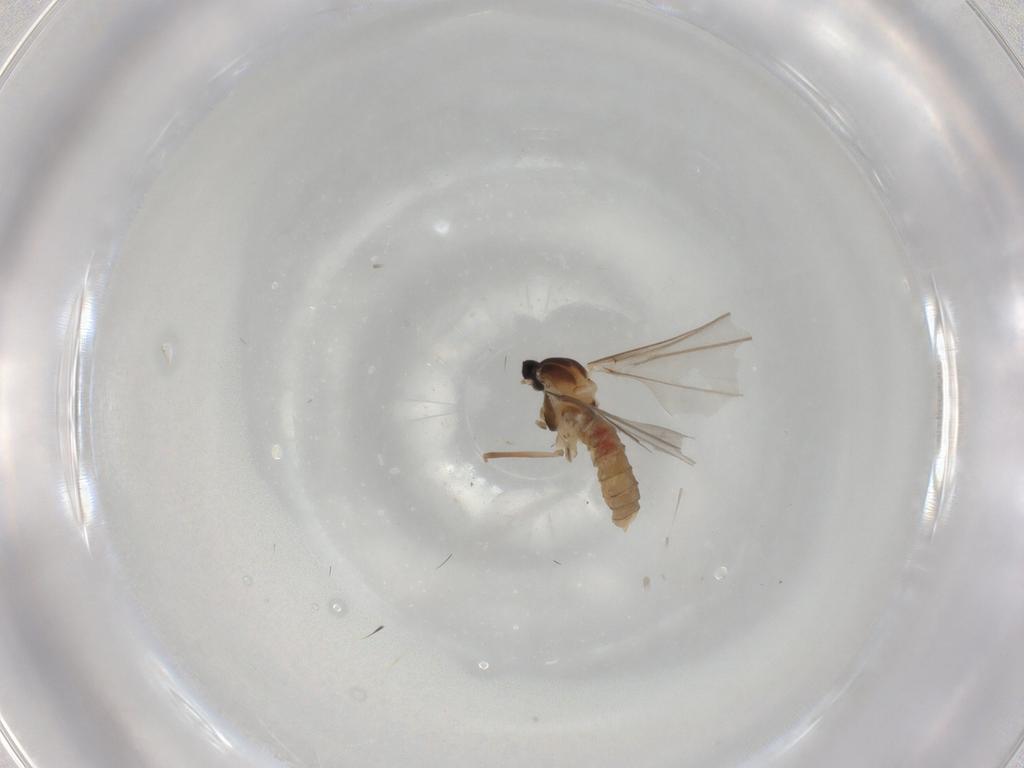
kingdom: Animalia
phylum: Arthropoda
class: Insecta
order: Diptera
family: Cecidomyiidae
